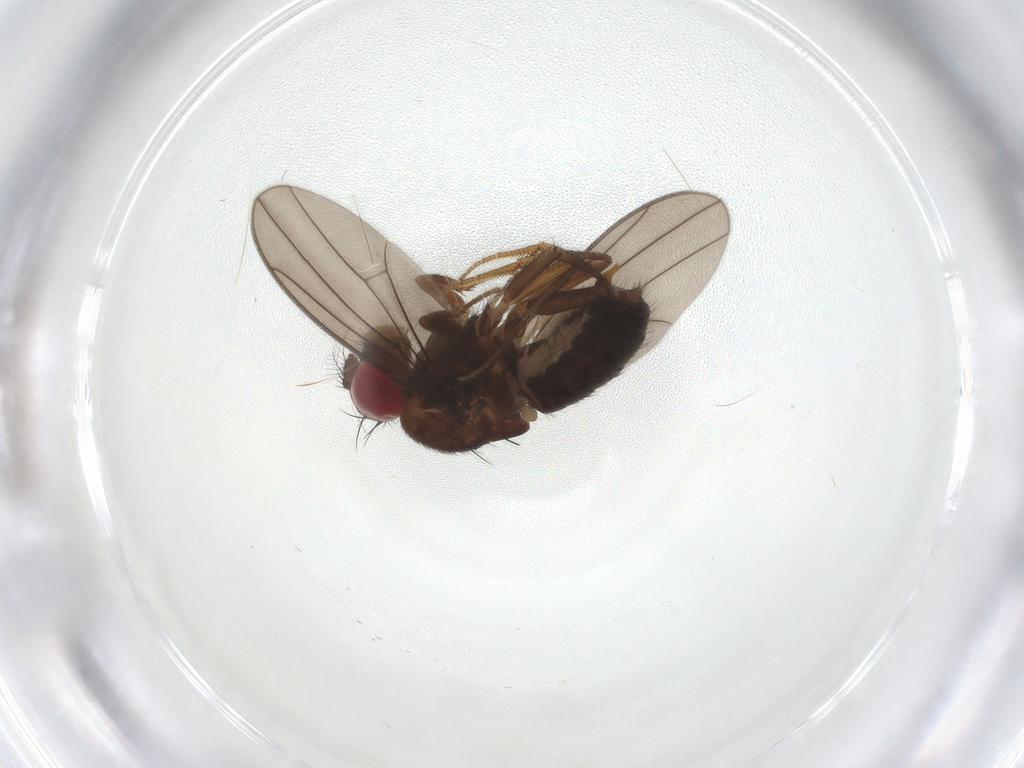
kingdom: Animalia
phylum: Arthropoda
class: Insecta
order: Diptera
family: Drosophilidae
